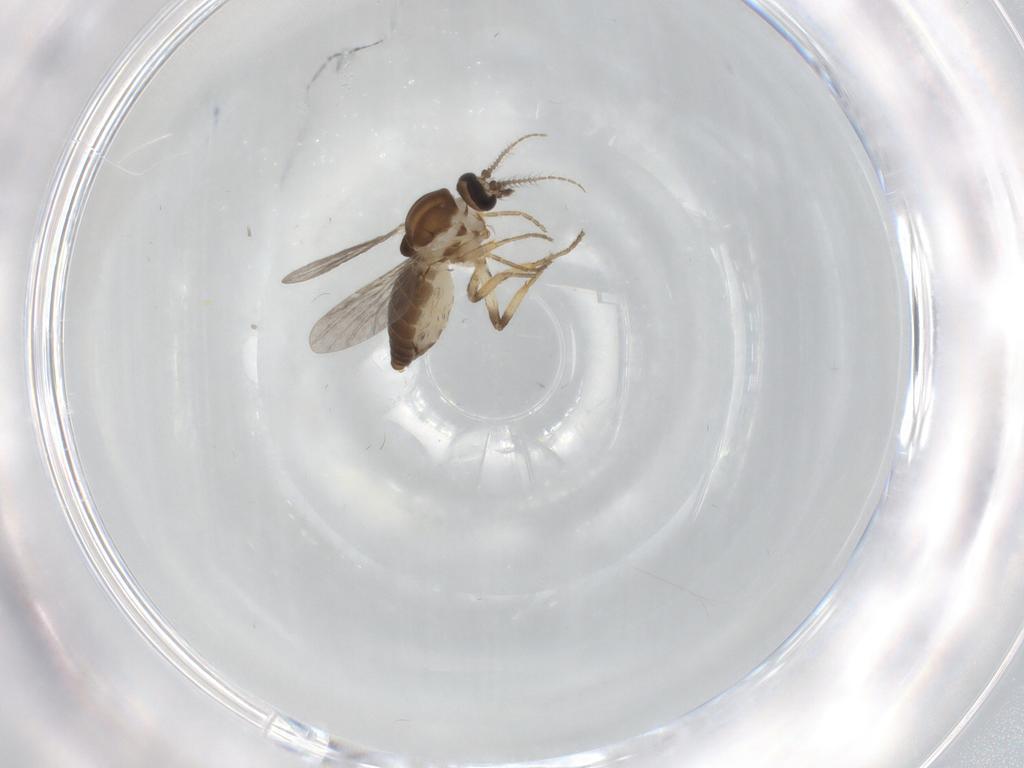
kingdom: Animalia
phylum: Arthropoda
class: Insecta
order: Diptera
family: Ceratopogonidae
